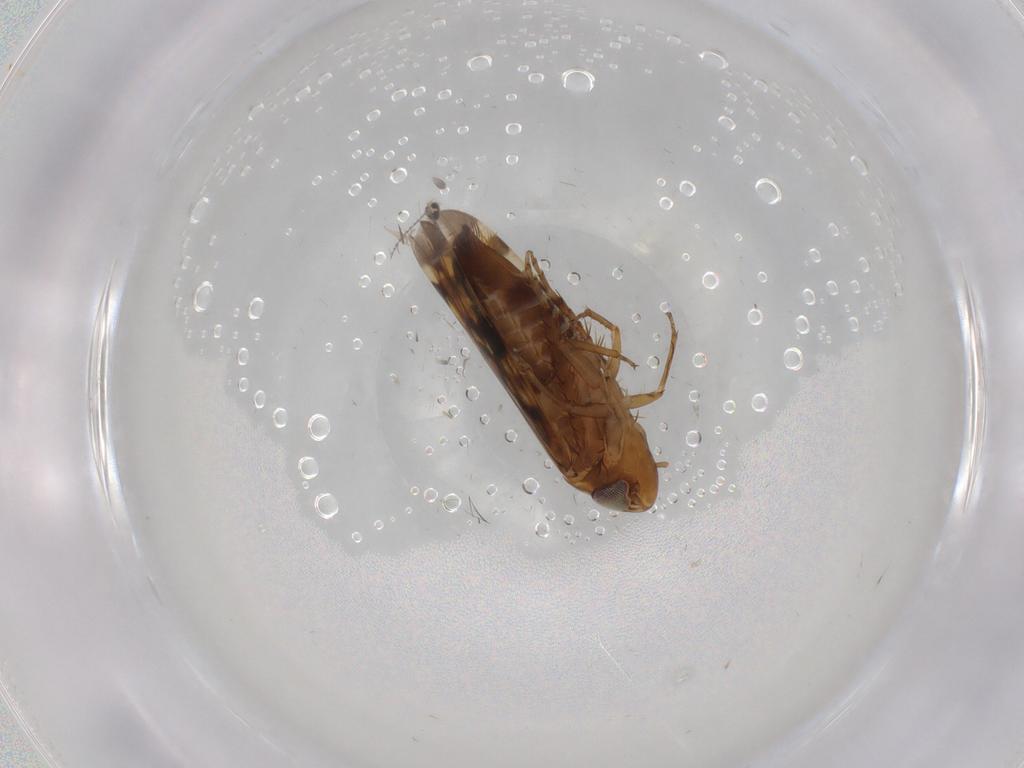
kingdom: Animalia
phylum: Arthropoda
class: Insecta
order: Hemiptera
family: Cicadellidae
